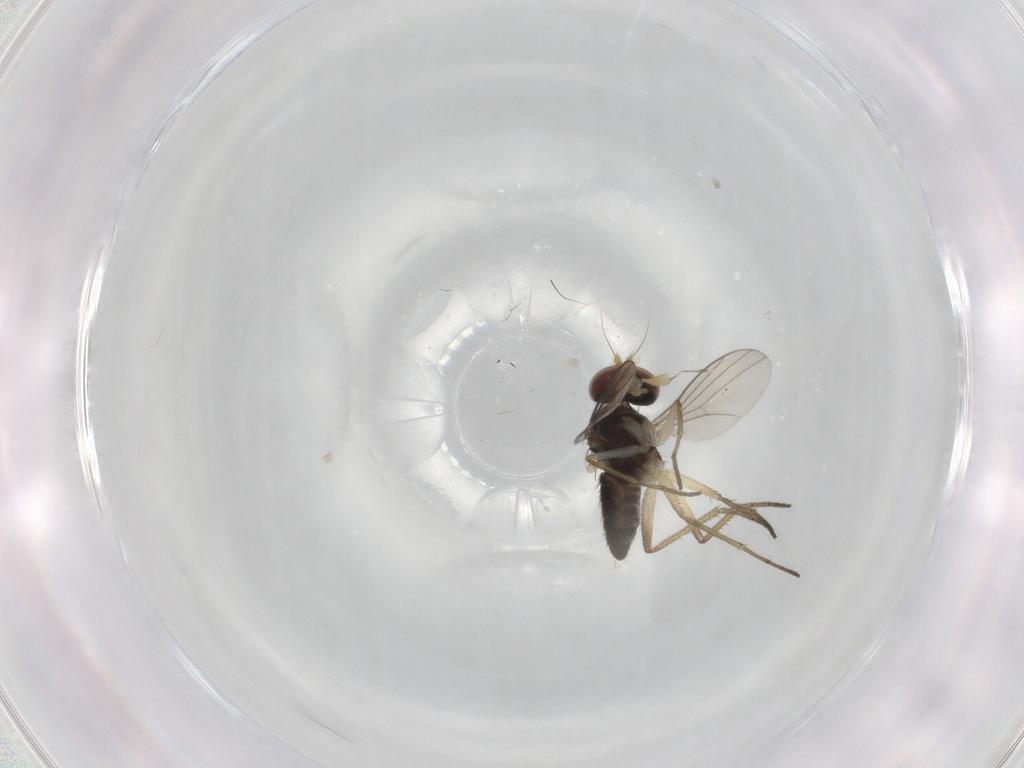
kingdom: Animalia
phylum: Arthropoda
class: Insecta
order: Diptera
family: Dolichopodidae
